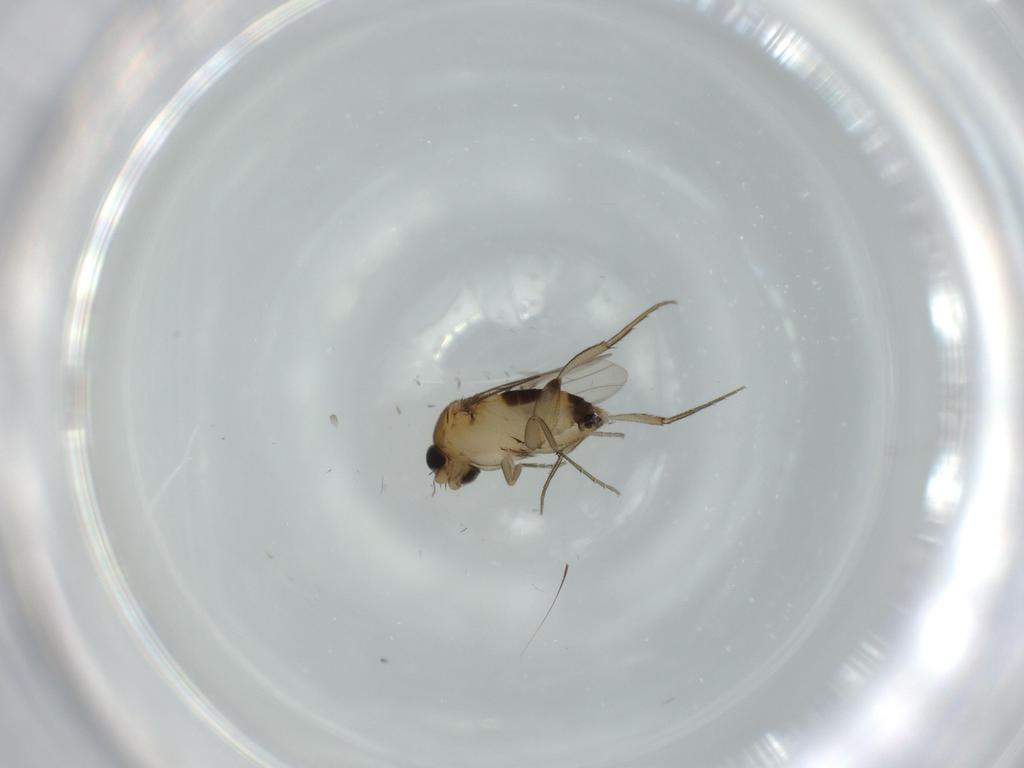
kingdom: Animalia
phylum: Arthropoda
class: Insecta
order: Diptera
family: Phoridae
